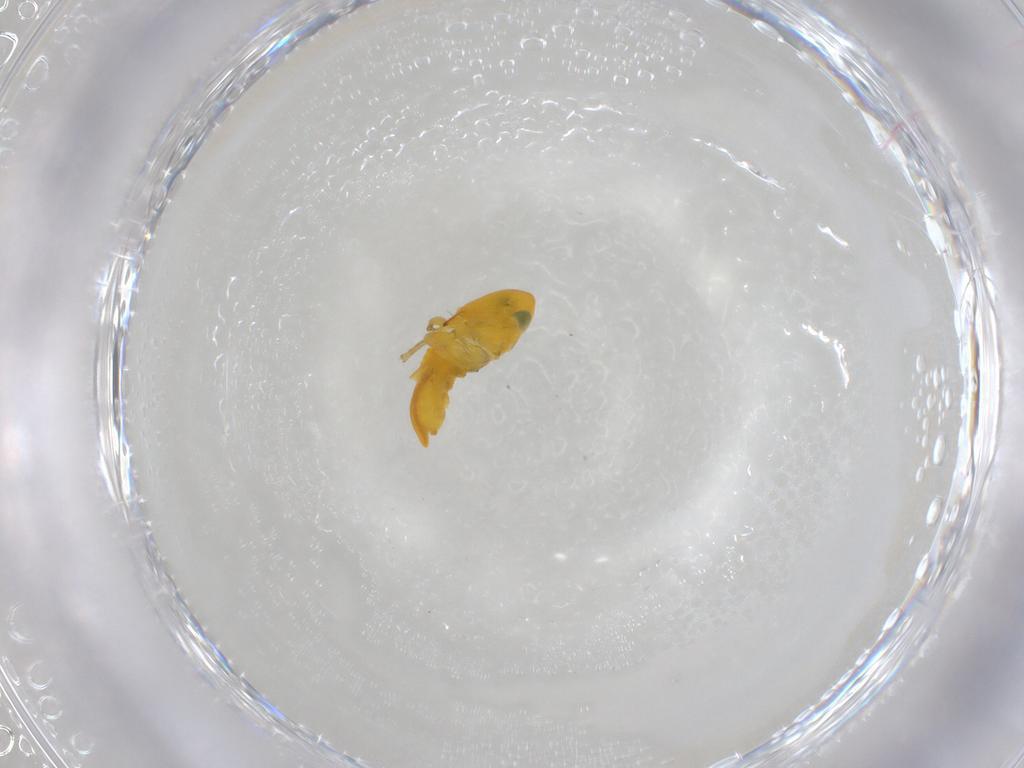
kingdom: Animalia
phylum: Arthropoda
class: Insecta
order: Hemiptera
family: Cicadellidae
